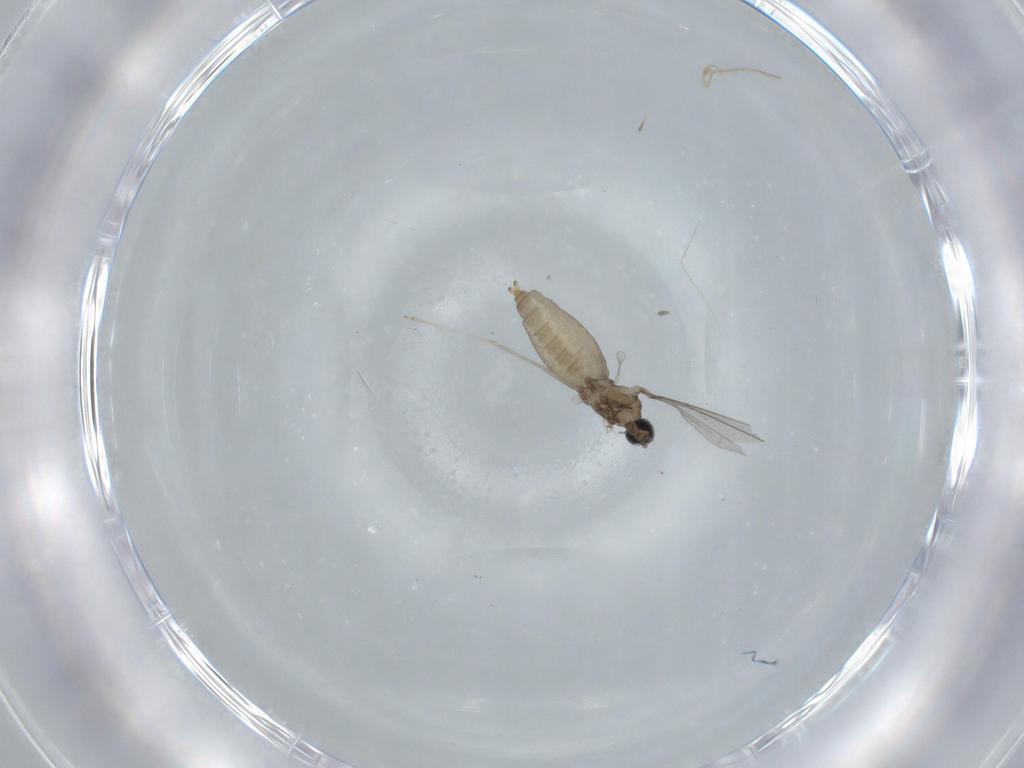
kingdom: Animalia
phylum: Arthropoda
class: Insecta
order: Diptera
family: Cecidomyiidae
